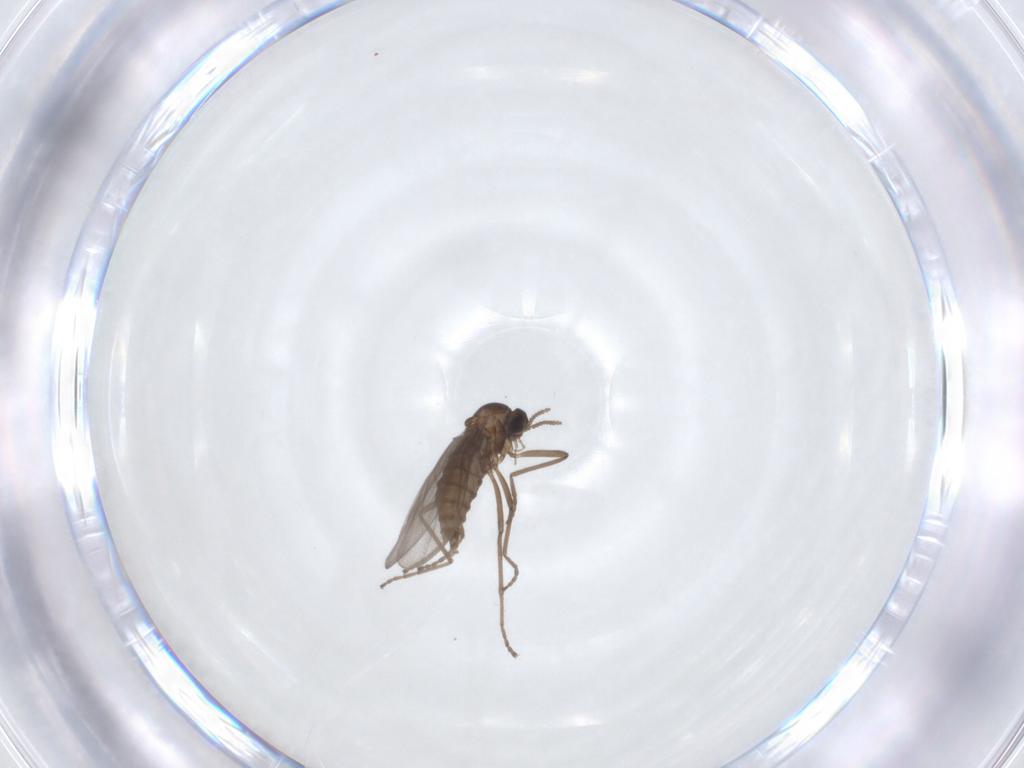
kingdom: Animalia
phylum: Arthropoda
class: Insecta
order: Diptera
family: Cecidomyiidae
